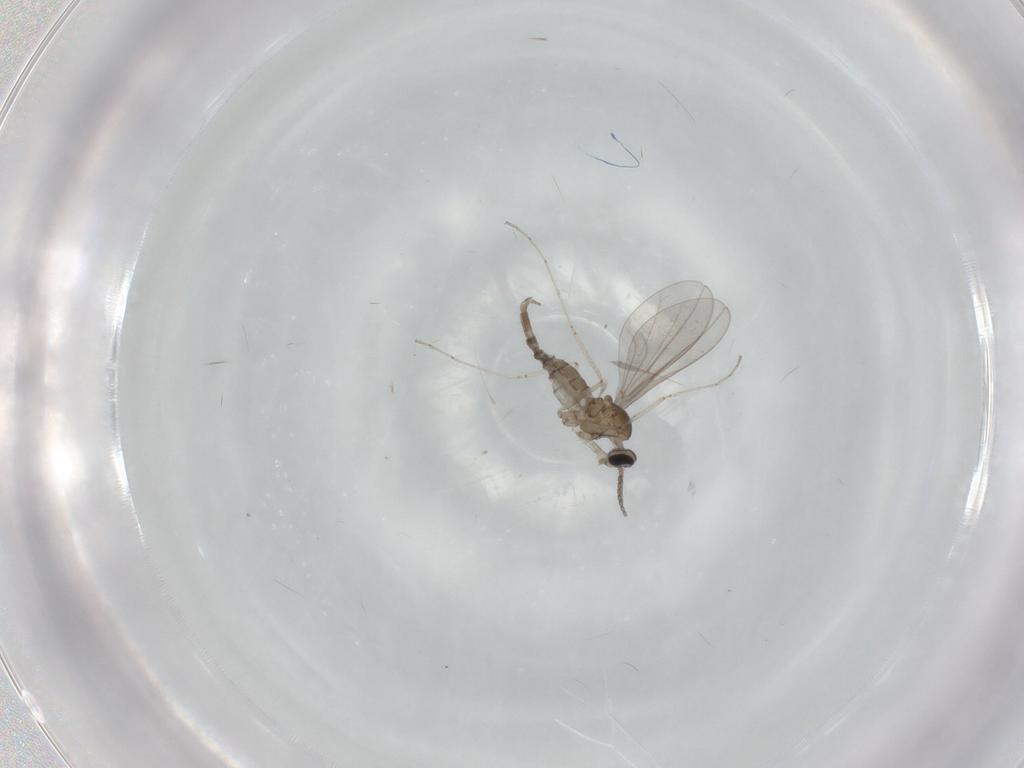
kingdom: Animalia
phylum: Arthropoda
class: Insecta
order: Diptera
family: Cecidomyiidae
